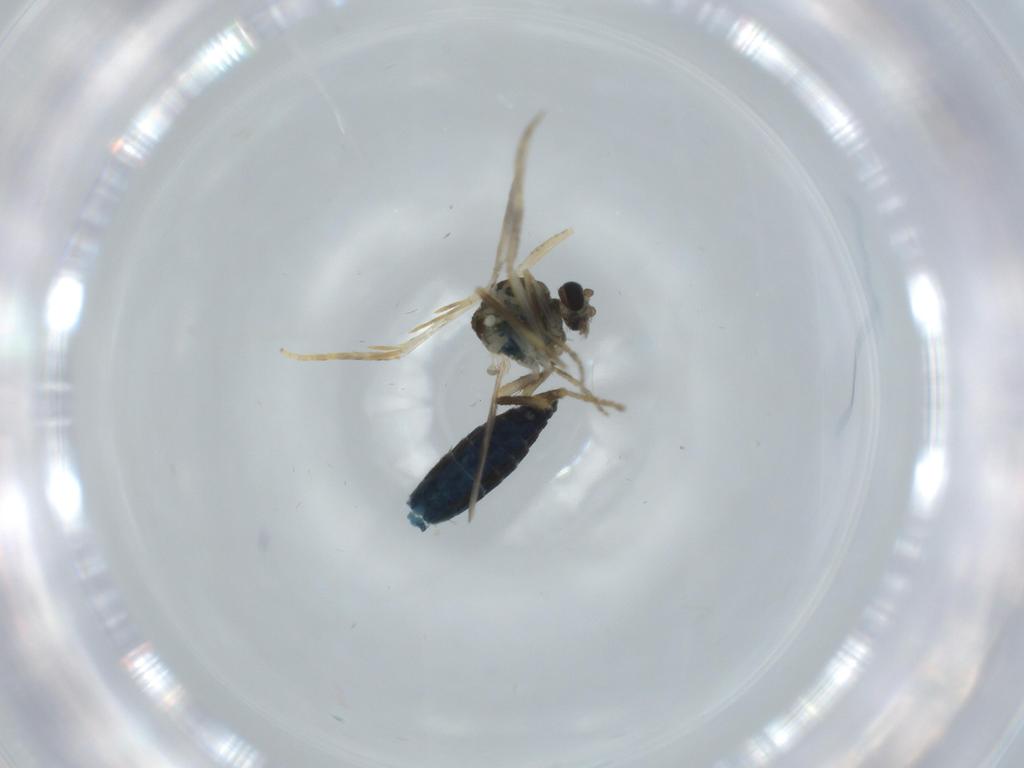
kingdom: Animalia
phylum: Arthropoda
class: Insecta
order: Diptera
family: Ceratopogonidae
